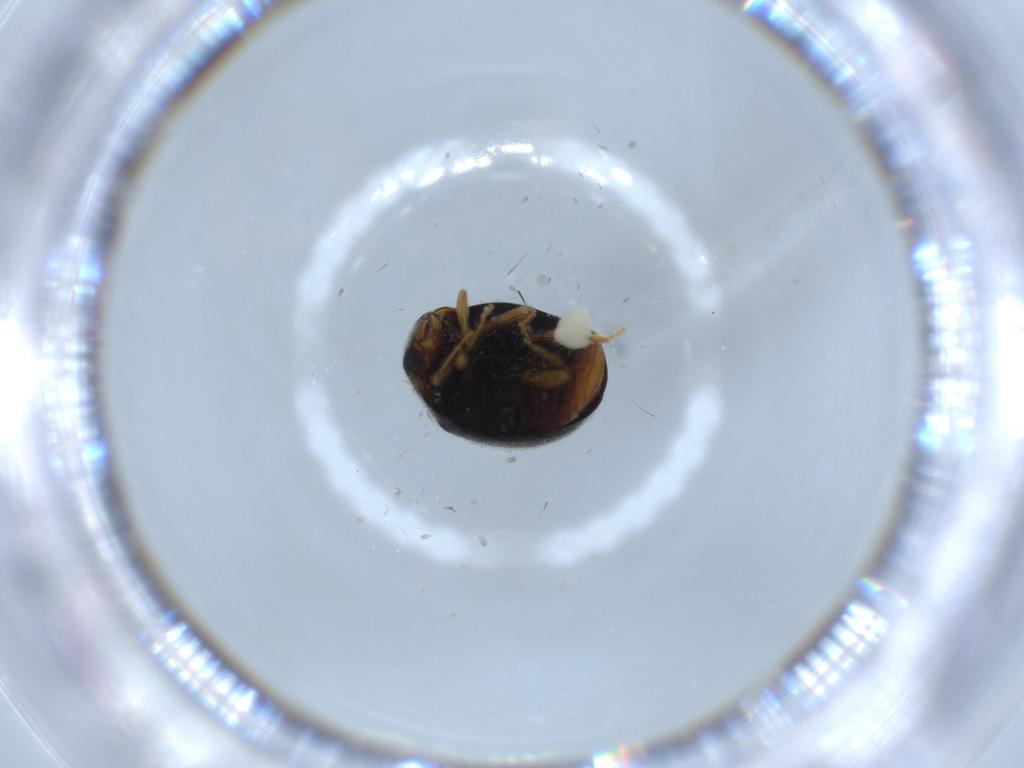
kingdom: Animalia
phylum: Arthropoda
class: Insecta
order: Coleoptera
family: Coccinellidae
